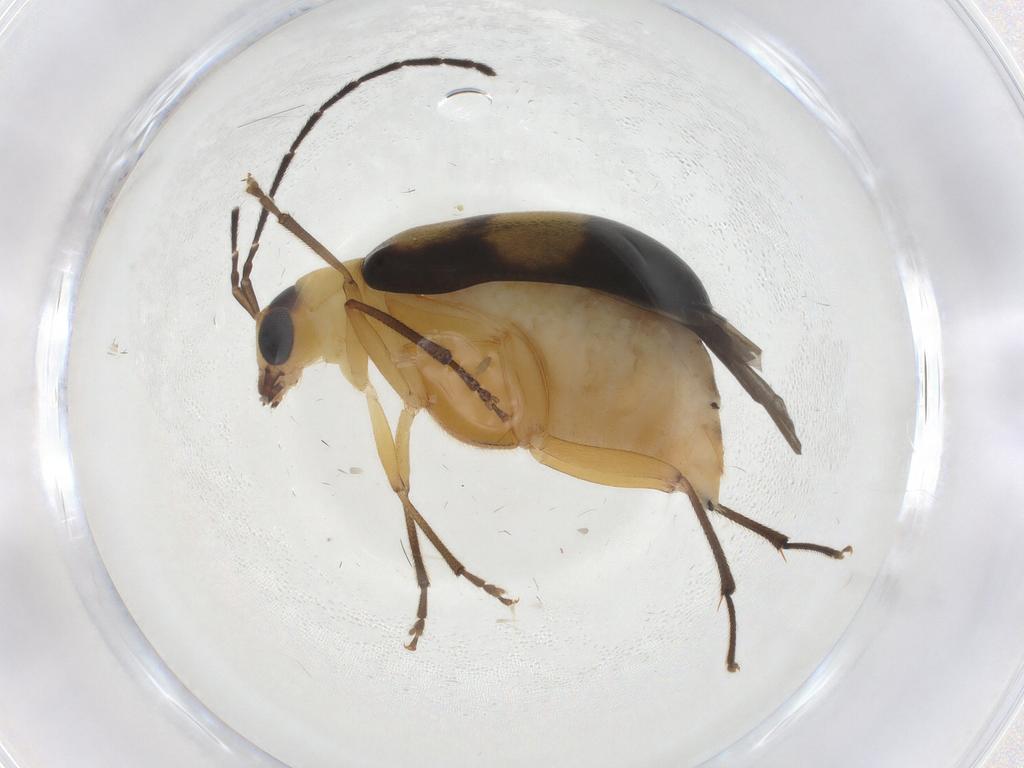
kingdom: Animalia
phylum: Arthropoda
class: Insecta
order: Coleoptera
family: Chrysomelidae
